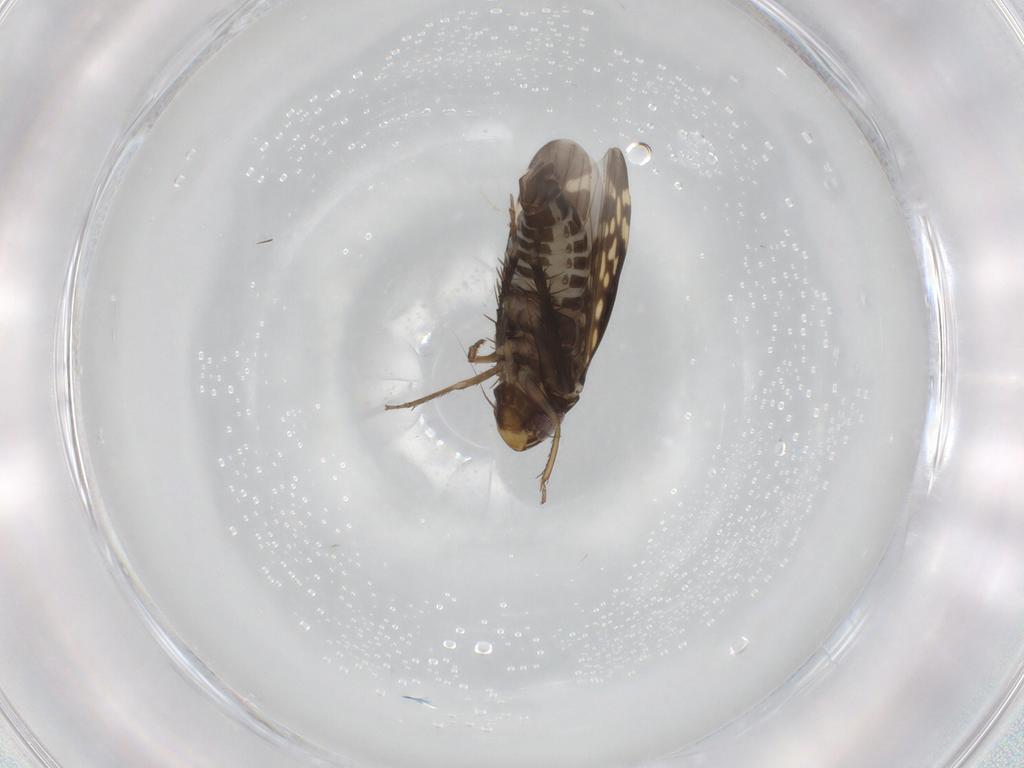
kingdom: Animalia
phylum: Arthropoda
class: Insecta
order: Hemiptera
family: Cicadellidae
